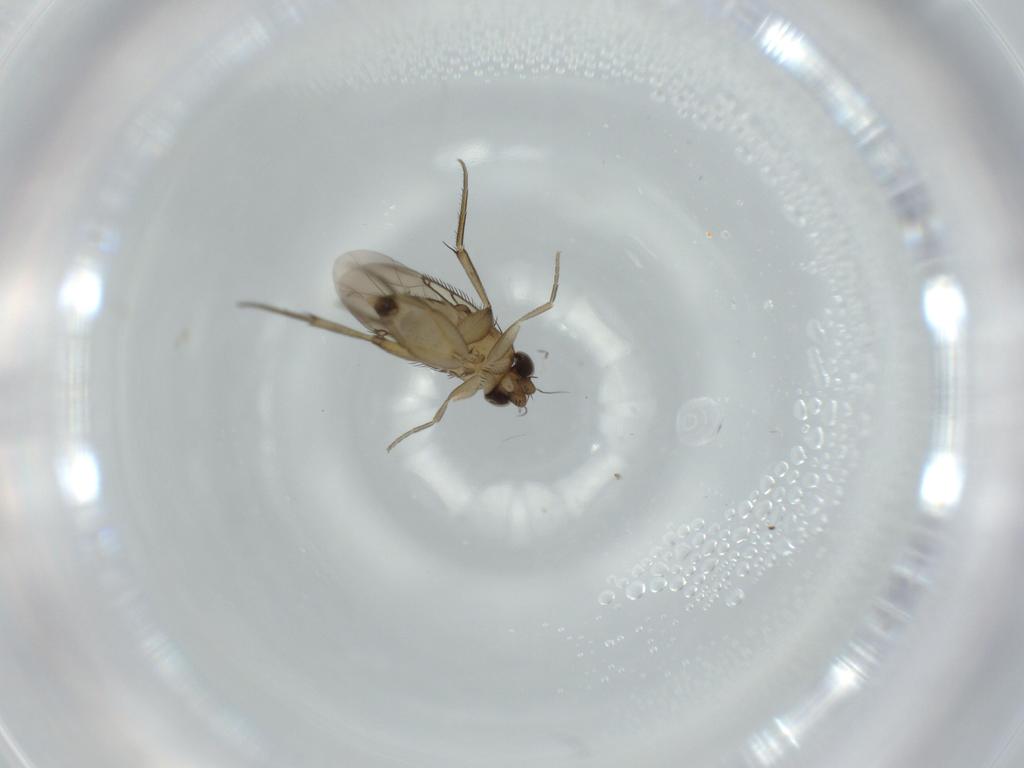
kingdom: Animalia
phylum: Arthropoda
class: Insecta
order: Diptera
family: Phoridae
